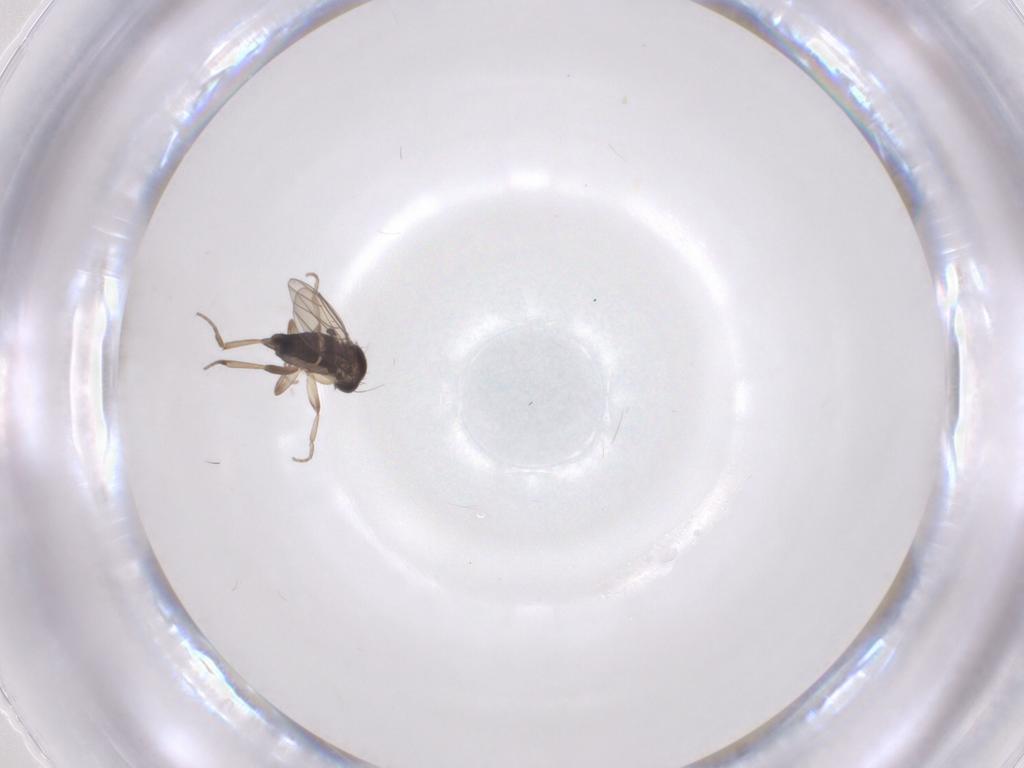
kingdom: Animalia
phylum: Arthropoda
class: Insecta
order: Diptera
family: Phoridae
